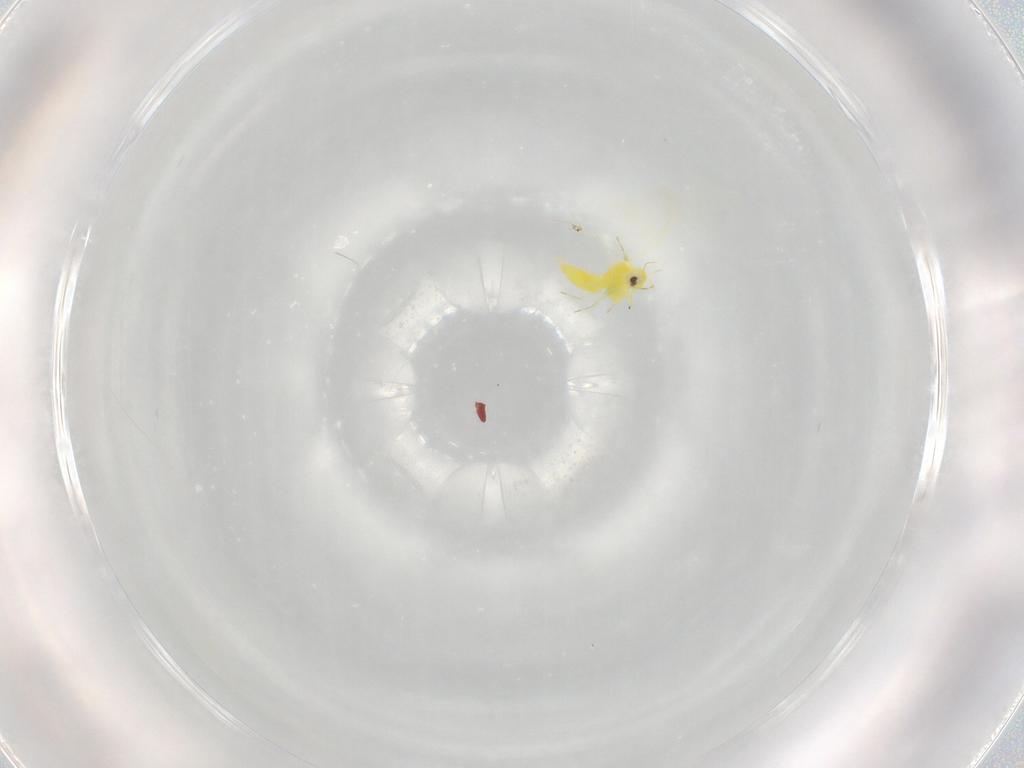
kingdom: Animalia
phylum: Arthropoda
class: Insecta
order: Hemiptera
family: Aleyrodidae
